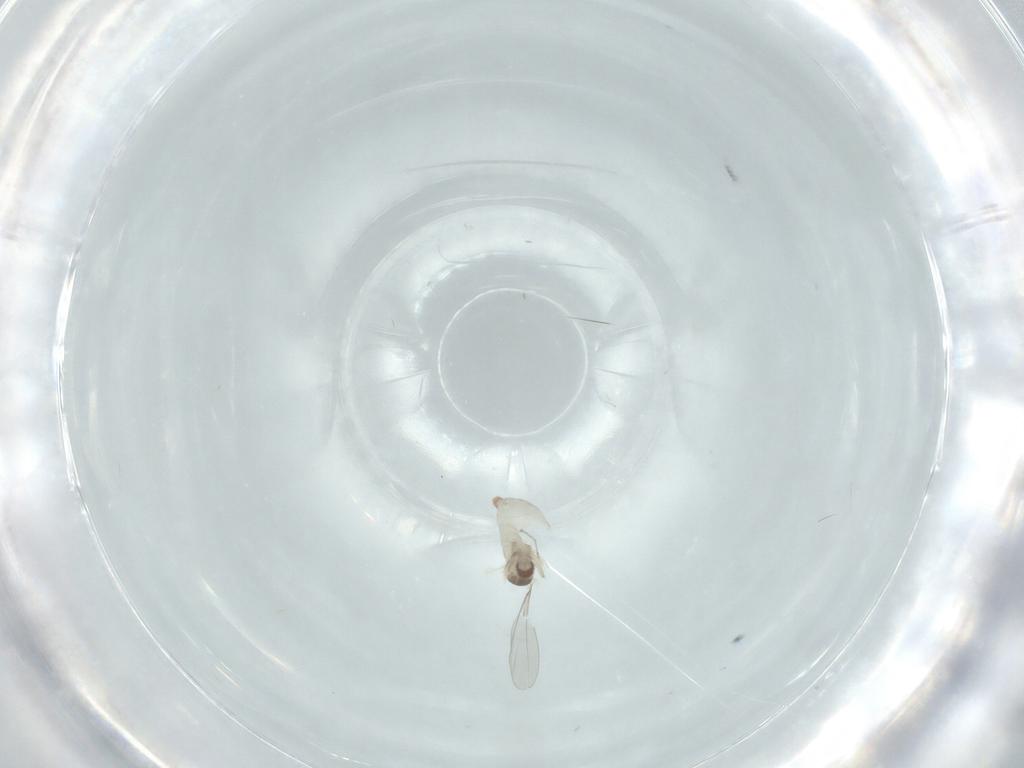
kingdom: Animalia
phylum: Arthropoda
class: Insecta
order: Diptera
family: Cecidomyiidae
